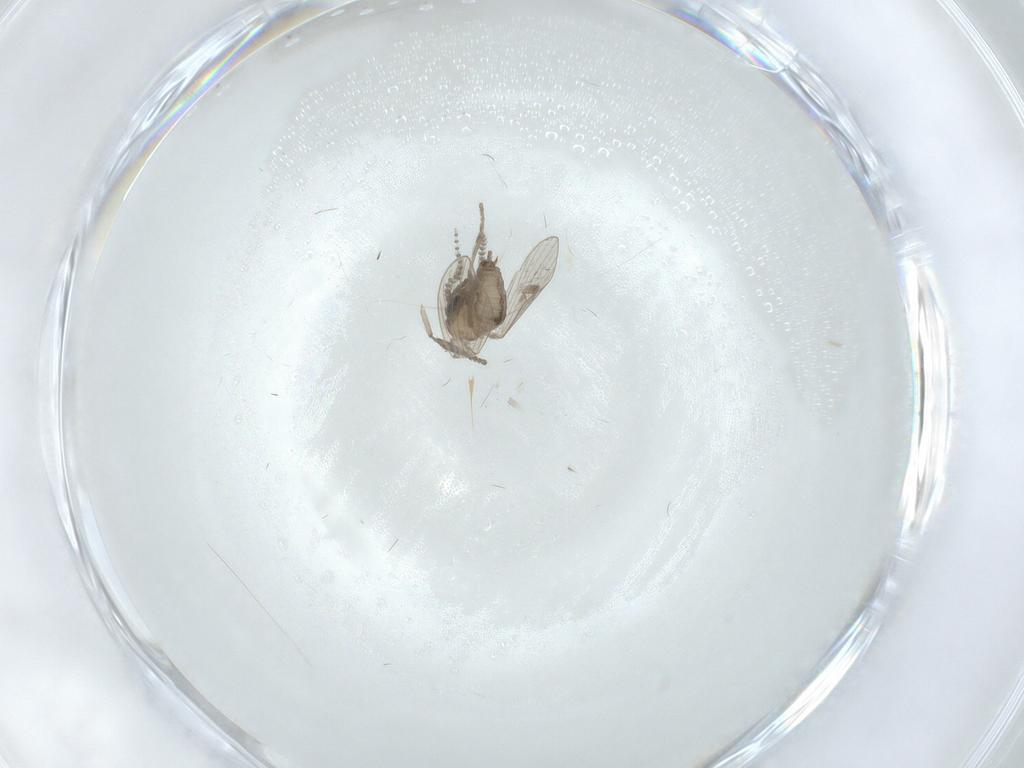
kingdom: Animalia
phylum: Arthropoda
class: Insecta
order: Diptera
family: Psychodidae
